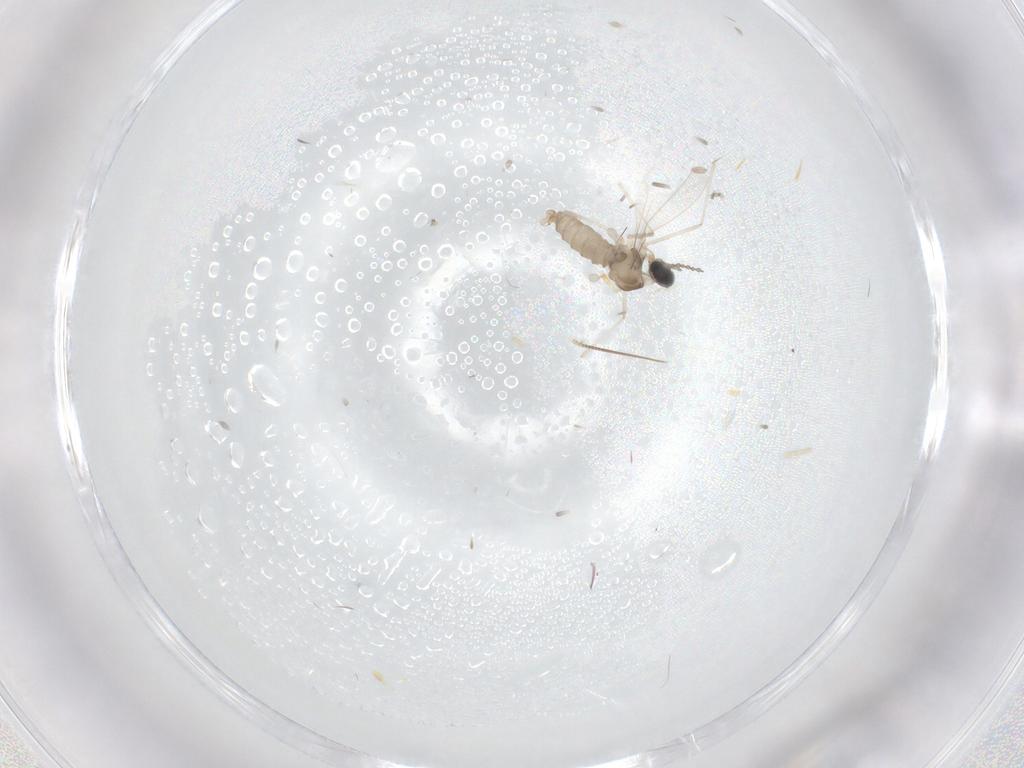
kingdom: Animalia
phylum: Arthropoda
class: Insecta
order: Diptera
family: Cecidomyiidae
